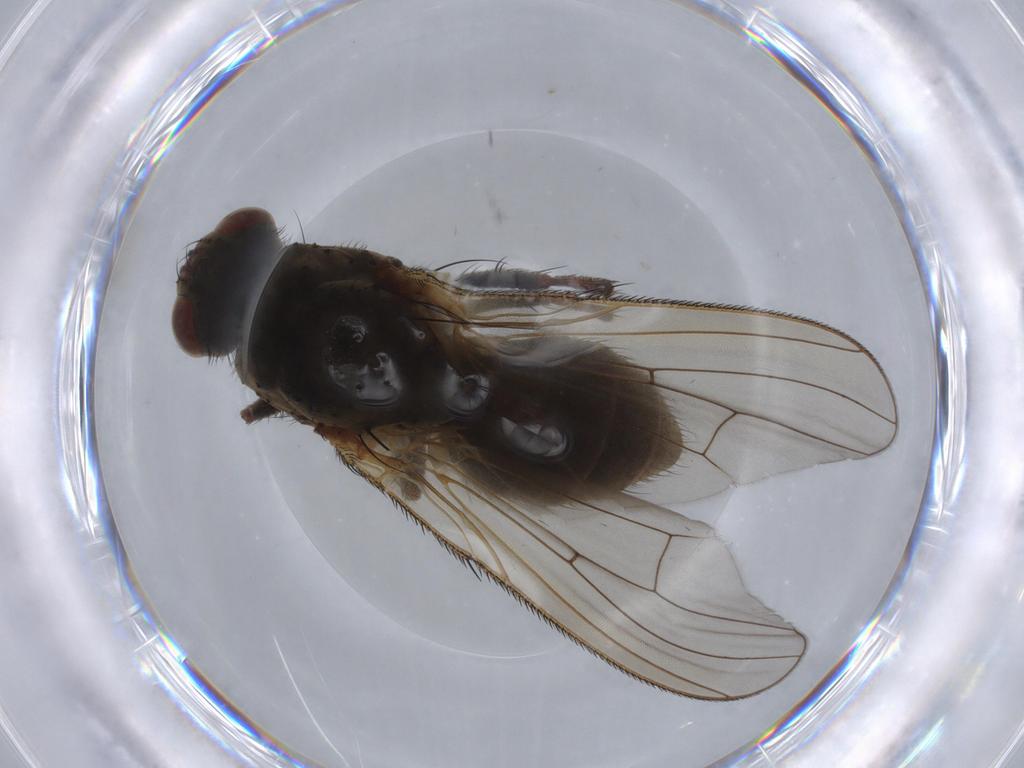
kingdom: Animalia
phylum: Arthropoda
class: Insecta
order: Diptera
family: Anthomyiidae
